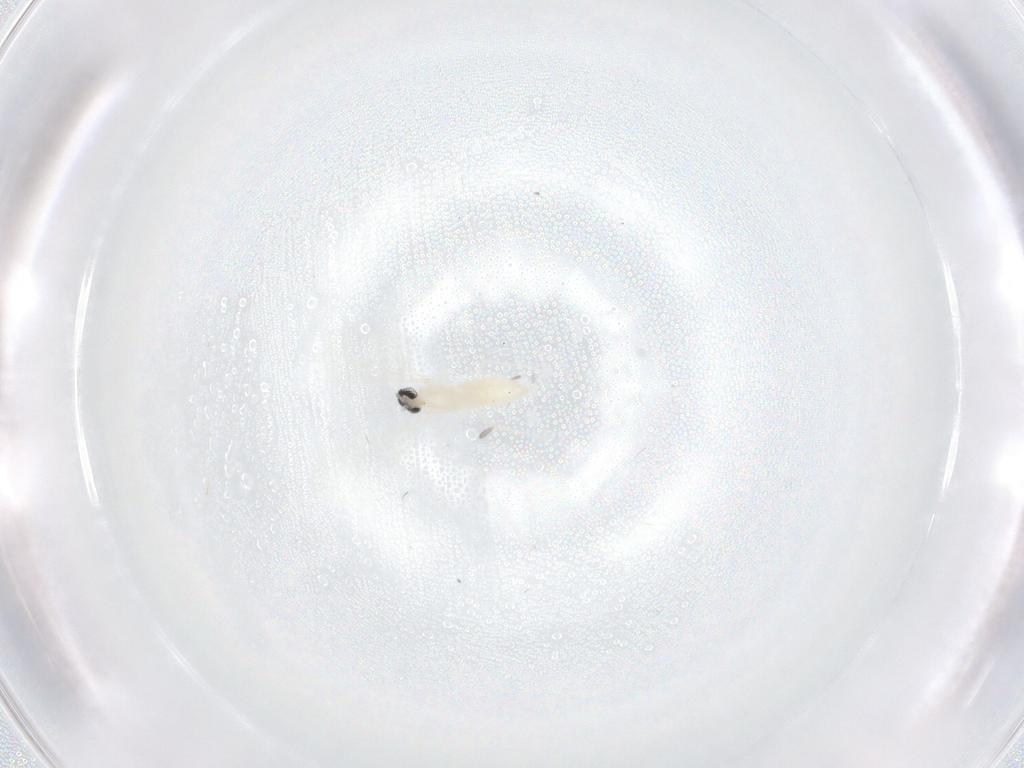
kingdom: Animalia
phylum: Arthropoda
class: Insecta
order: Diptera
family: Cecidomyiidae
